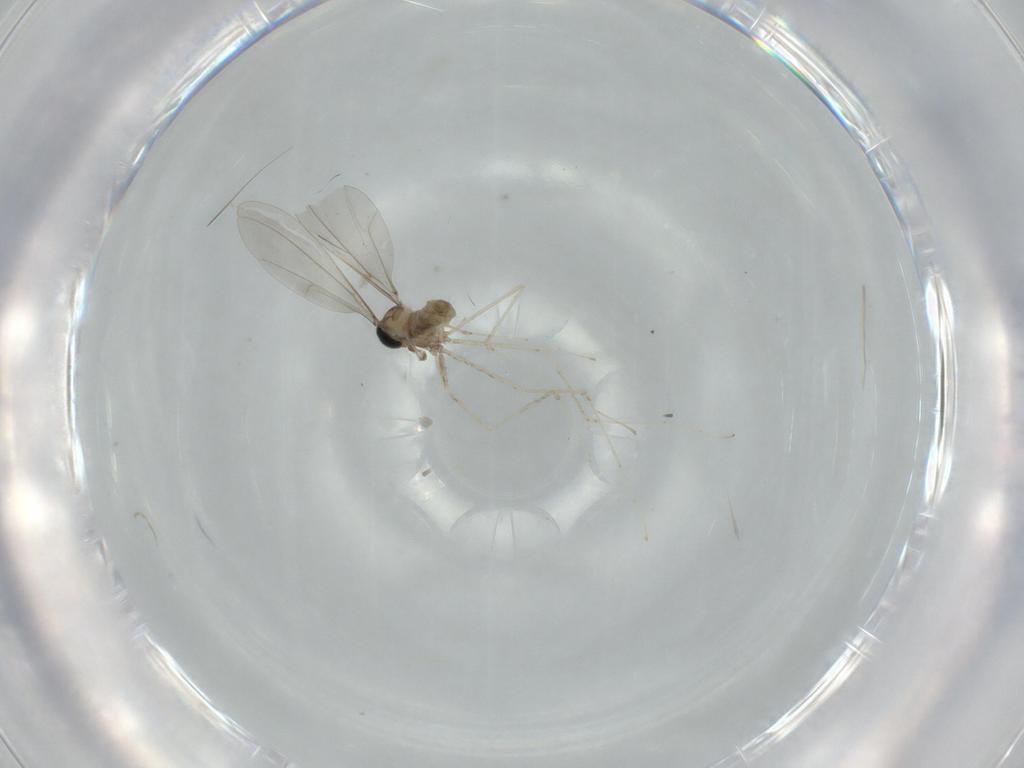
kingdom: Animalia
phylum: Arthropoda
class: Insecta
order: Diptera
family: Cecidomyiidae
